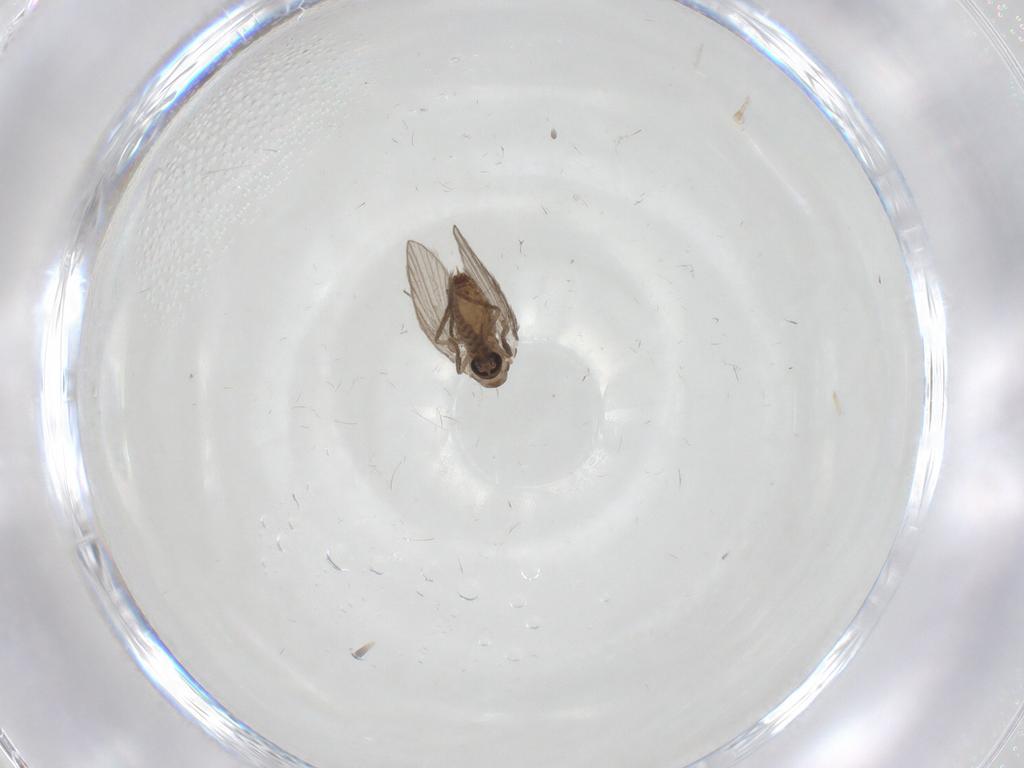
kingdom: Animalia
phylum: Arthropoda
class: Insecta
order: Diptera
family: Psychodidae
